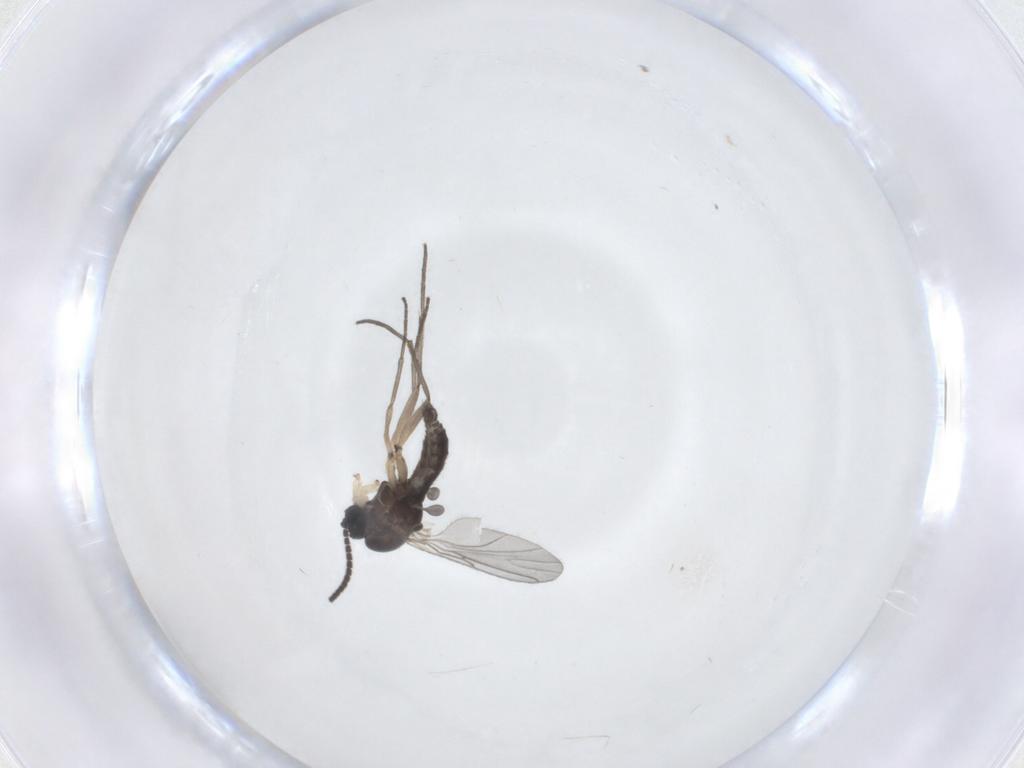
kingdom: Animalia
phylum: Arthropoda
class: Insecta
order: Diptera
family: Sciaridae
